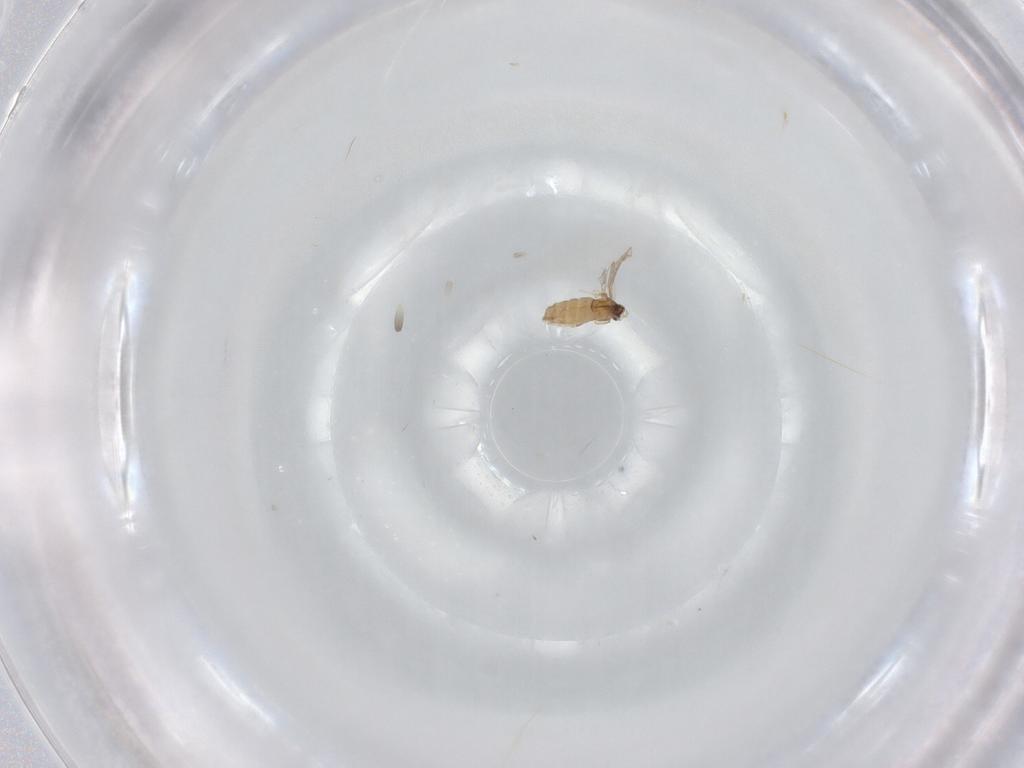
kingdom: Animalia
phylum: Arthropoda
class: Insecta
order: Diptera
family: Cecidomyiidae
